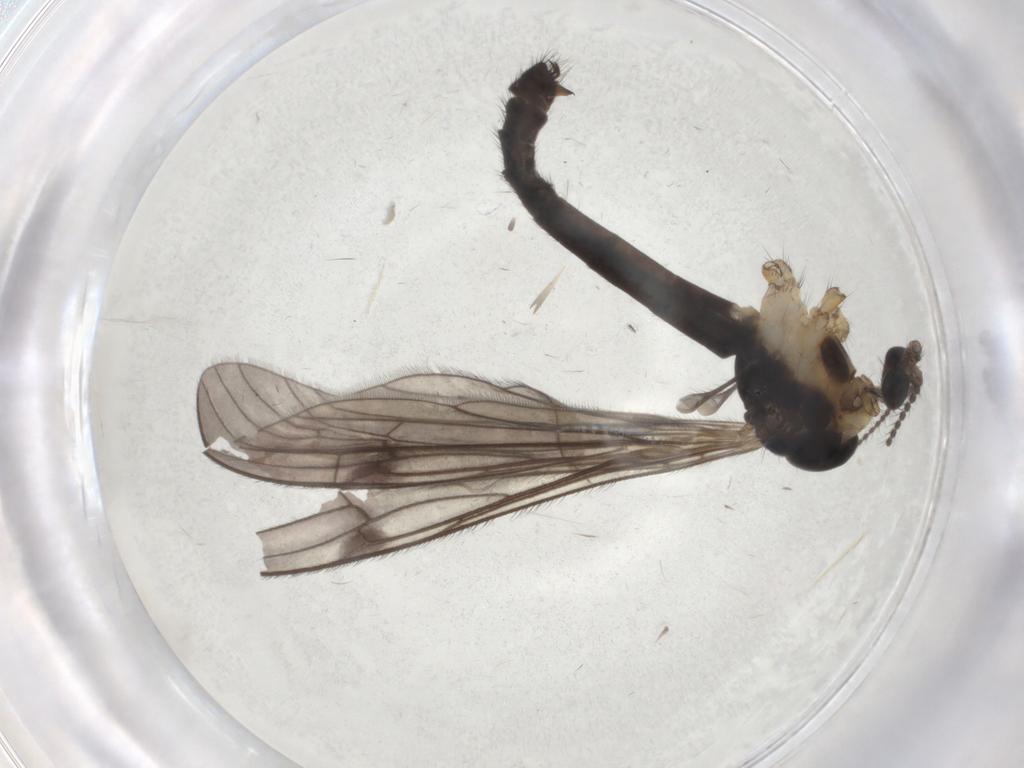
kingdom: Animalia
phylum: Arthropoda
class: Insecta
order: Diptera
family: Limoniidae
